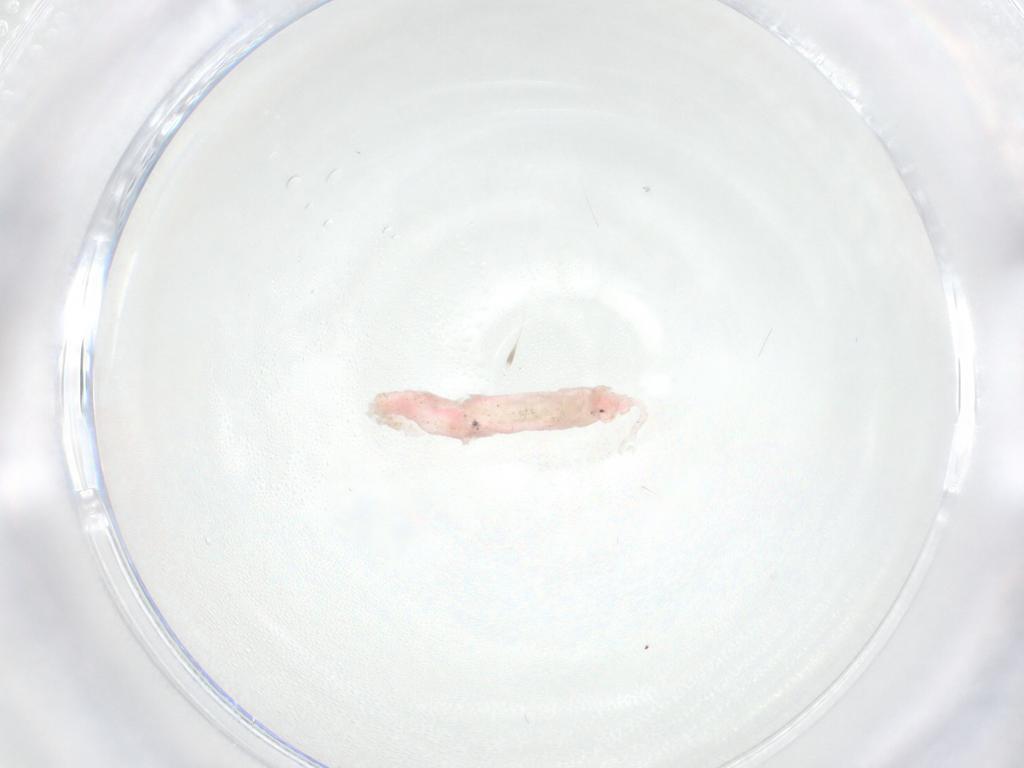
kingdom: Animalia
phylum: Arthropoda
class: Insecta
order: Diptera
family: Psychodidae
